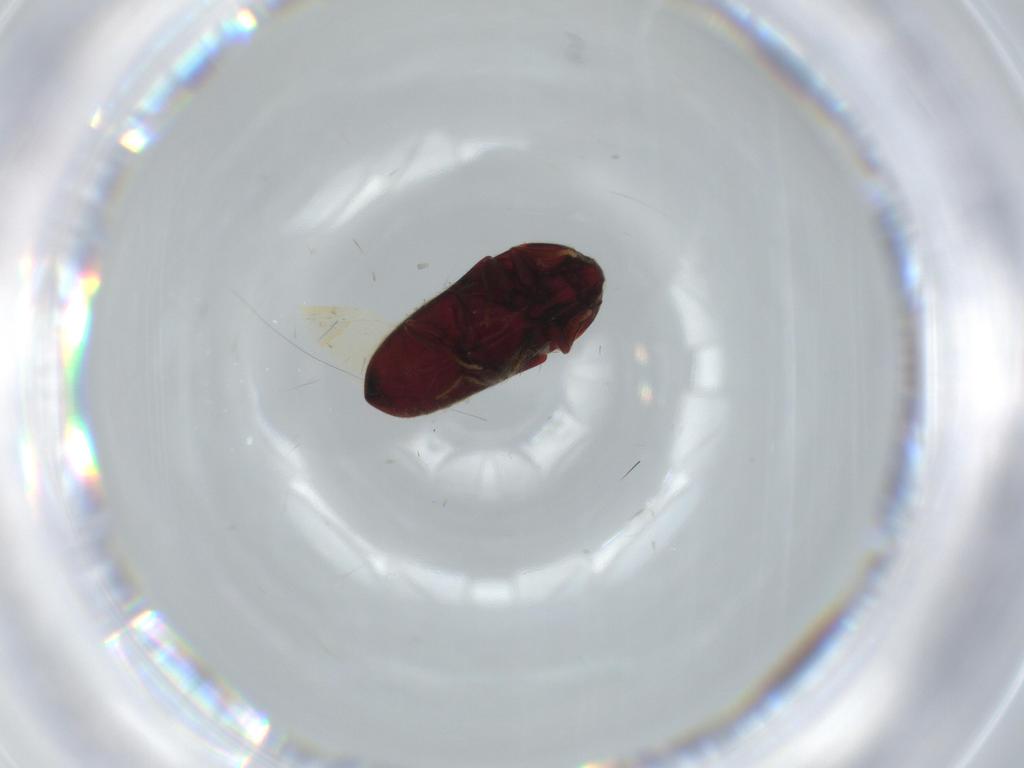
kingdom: Animalia
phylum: Arthropoda
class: Insecta
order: Coleoptera
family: Throscidae
